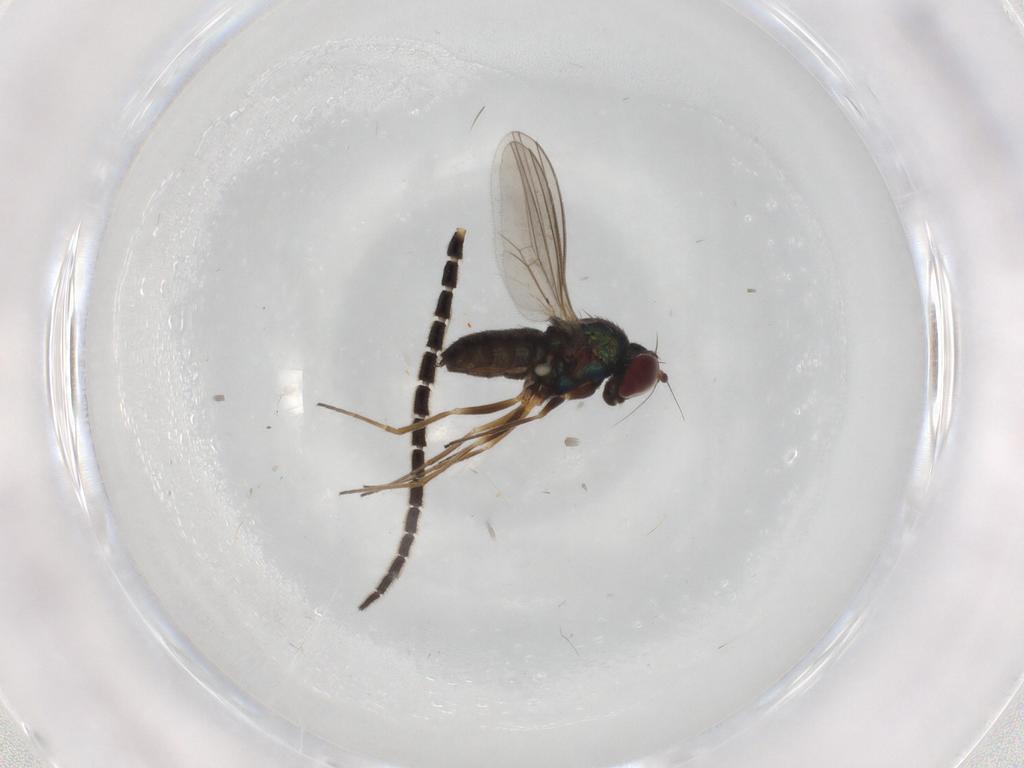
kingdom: Animalia
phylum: Arthropoda
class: Insecta
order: Diptera
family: Dolichopodidae
